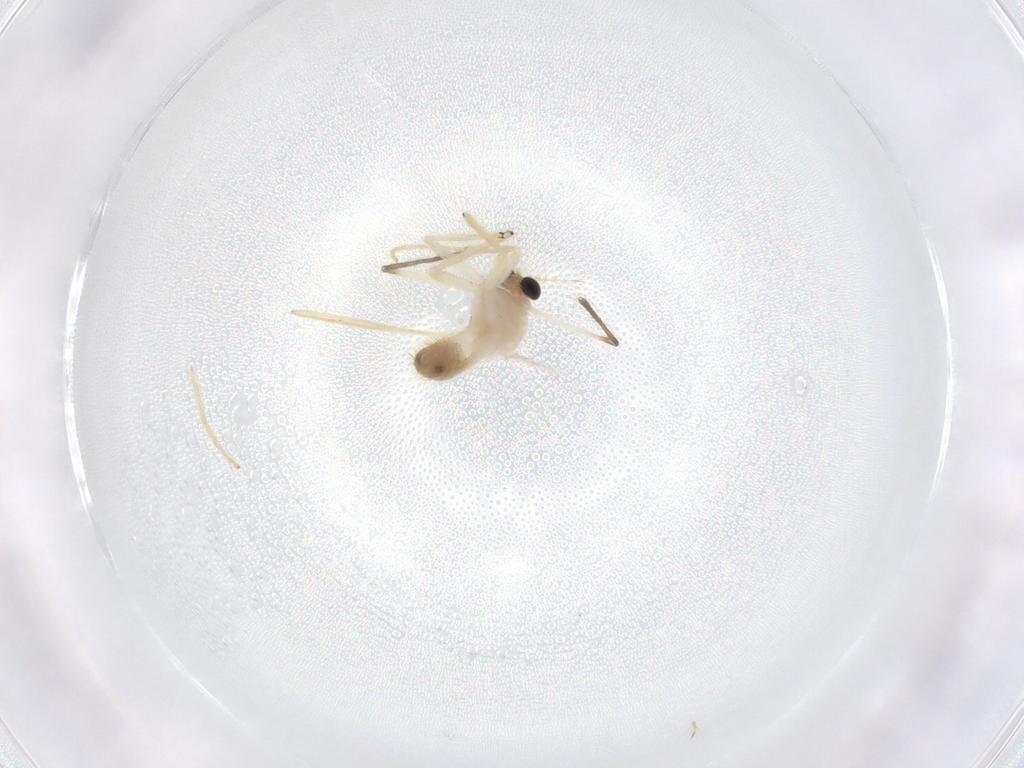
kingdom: Animalia
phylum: Arthropoda
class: Insecta
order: Diptera
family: Chironomidae
